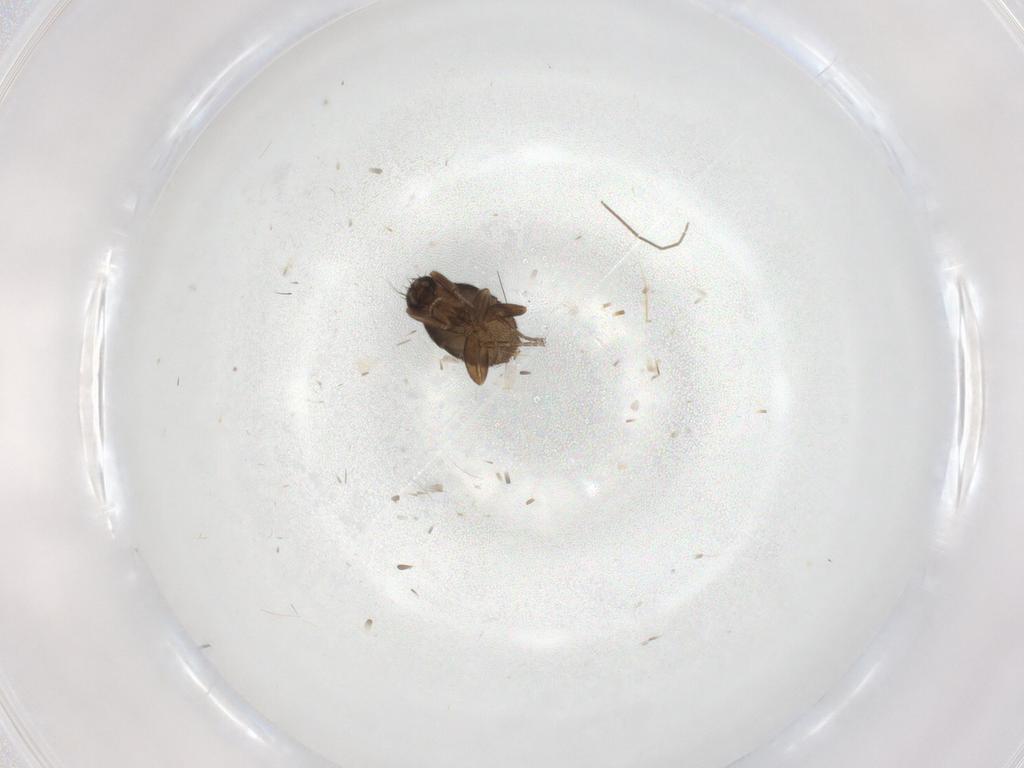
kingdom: Animalia
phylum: Arthropoda
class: Insecta
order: Diptera
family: Phoridae
